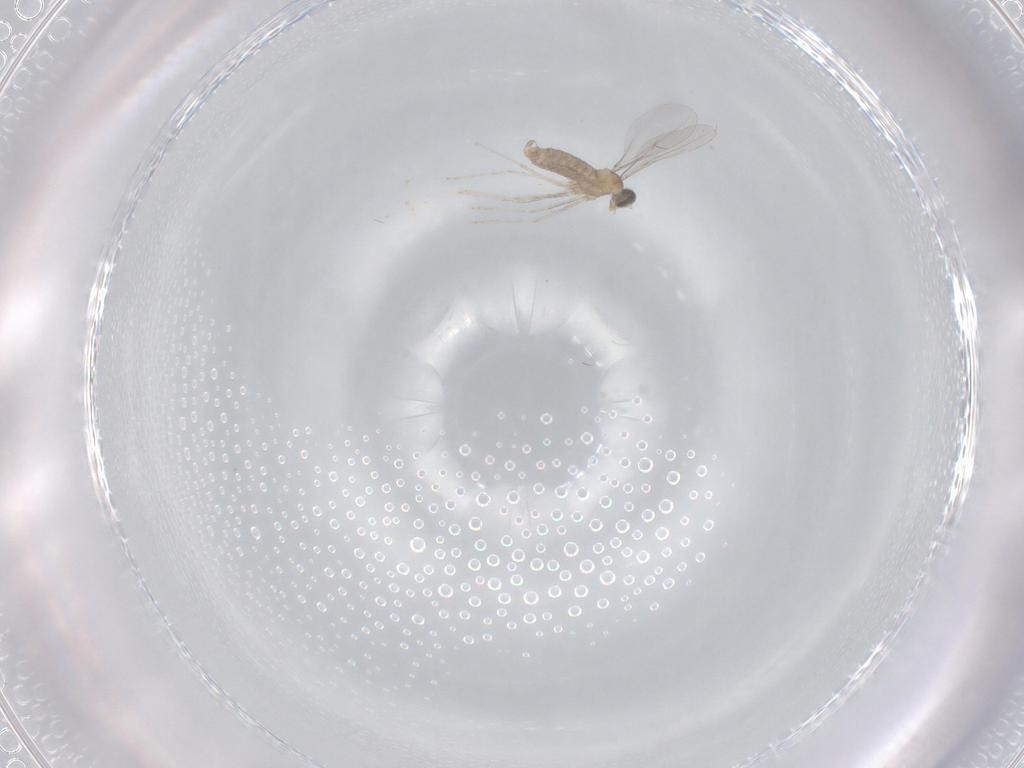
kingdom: Animalia
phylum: Arthropoda
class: Insecta
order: Diptera
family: Cecidomyiidae
